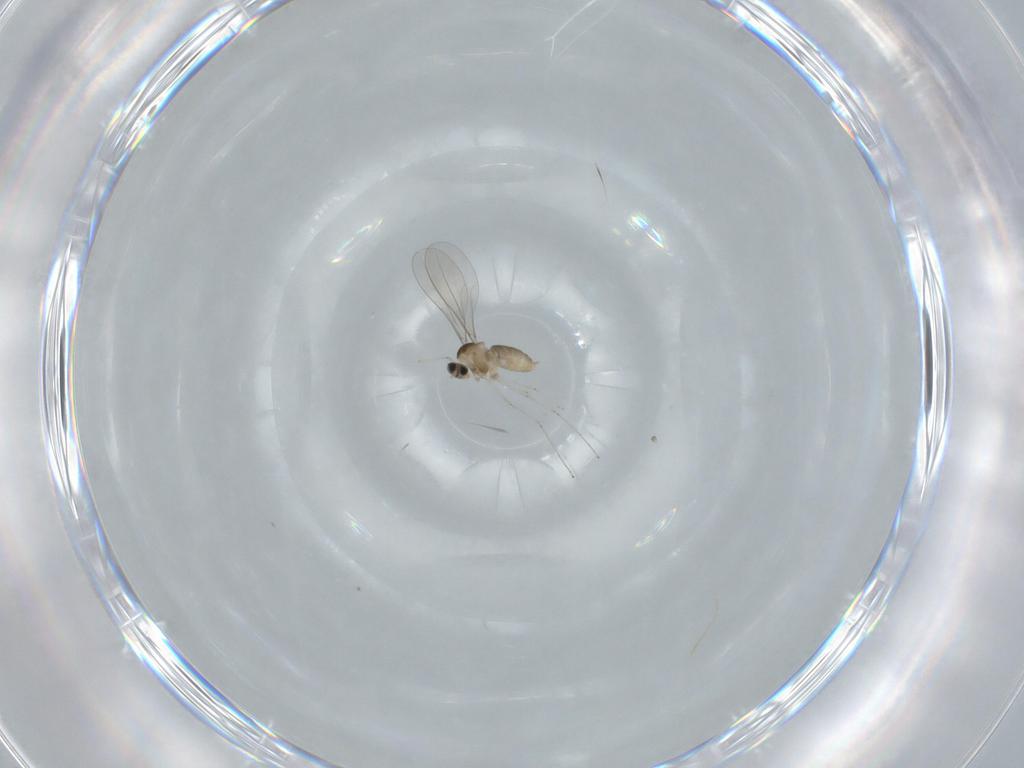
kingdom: Animalia
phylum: Arthropoda
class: Insecta
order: Diptera
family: Cecidomyiidae
